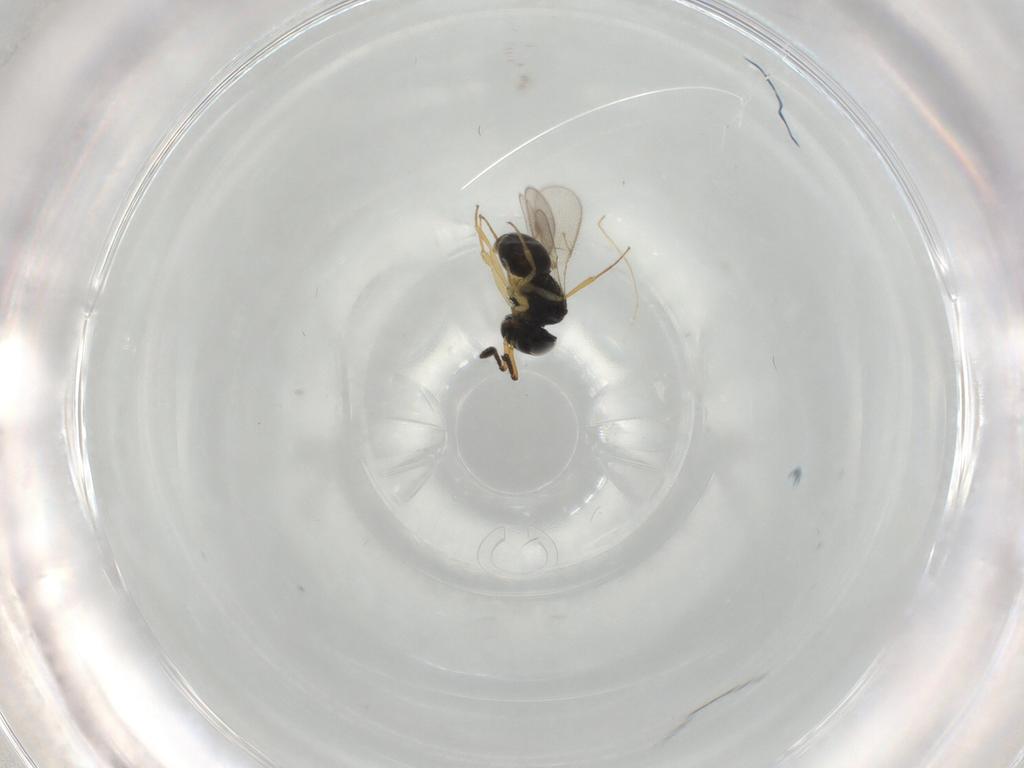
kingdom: Animalia
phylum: Arthropoda
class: Insecta
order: Hymenoptera
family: Scelionidae
